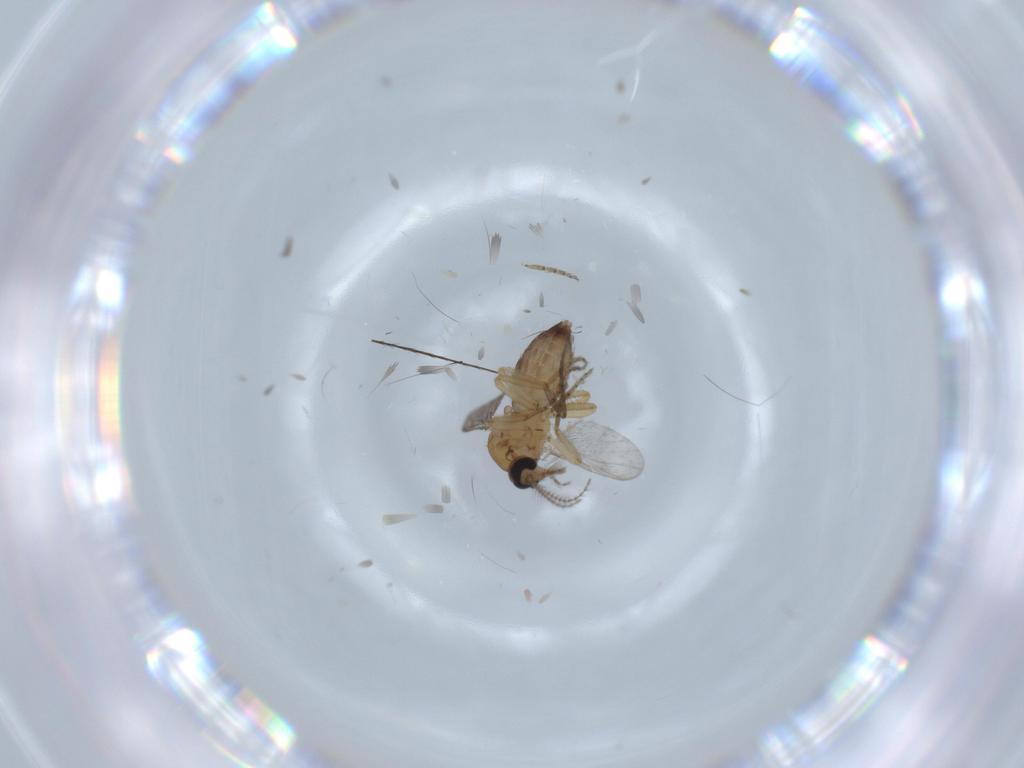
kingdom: Animalia
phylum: Arthropoda
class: Insecta
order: Diptera
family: Ceratopogonidae
